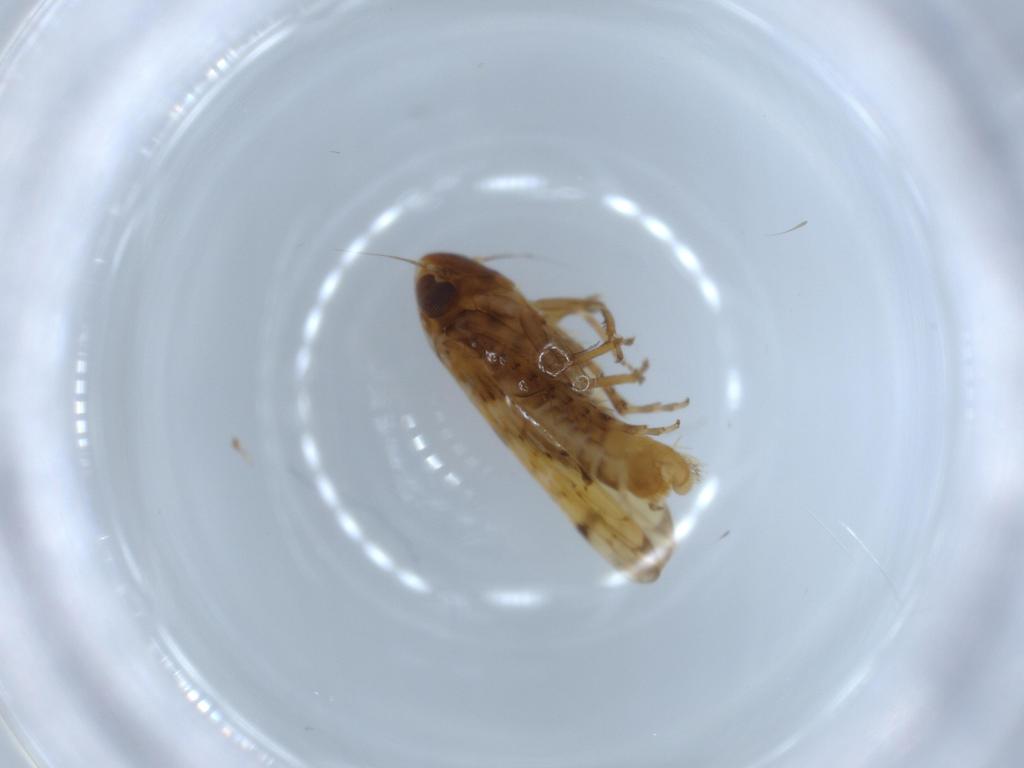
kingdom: Animalia
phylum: Arthropoda
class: Insecta
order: Hemiptera
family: Cicadellidae
